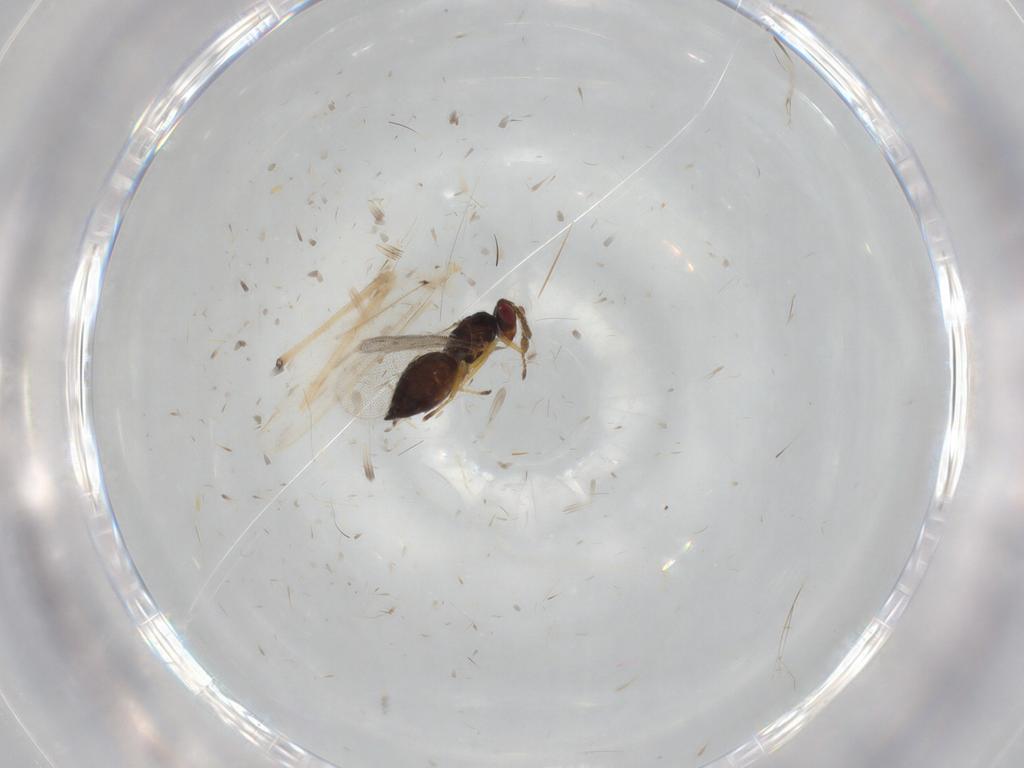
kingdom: Animalia
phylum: Arthropoda
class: Insecta
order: Hymenoptera
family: Eulophidae
